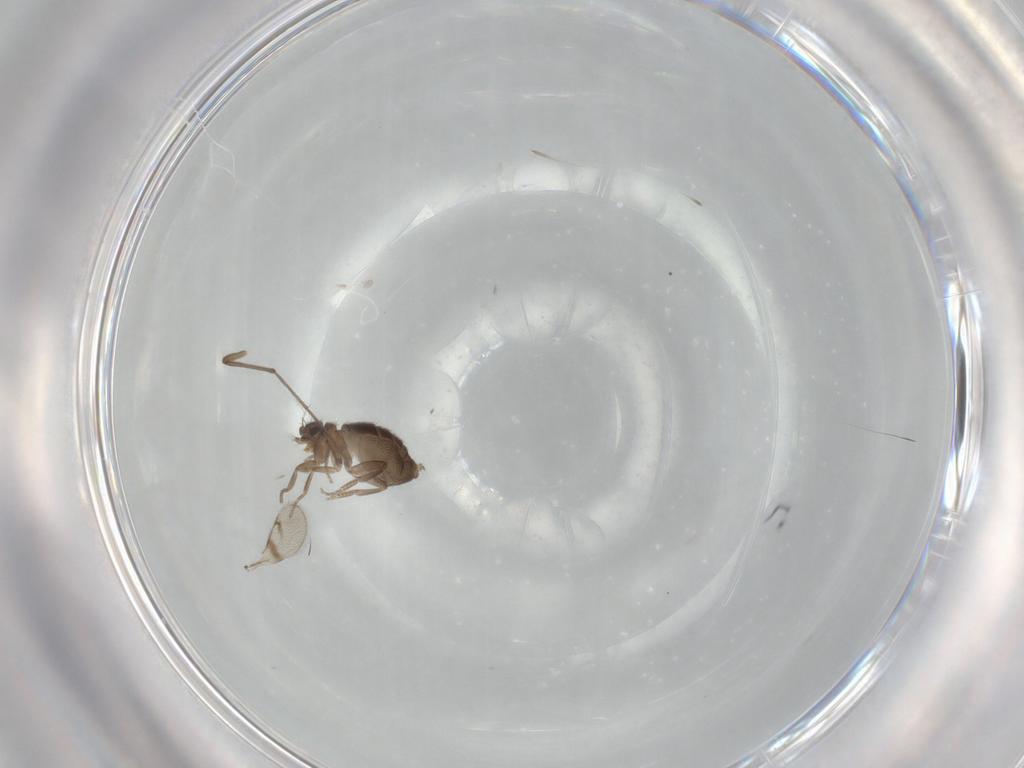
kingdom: Animalia
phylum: Arthropoda
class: Insecta
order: Diptera
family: Chironomidae
